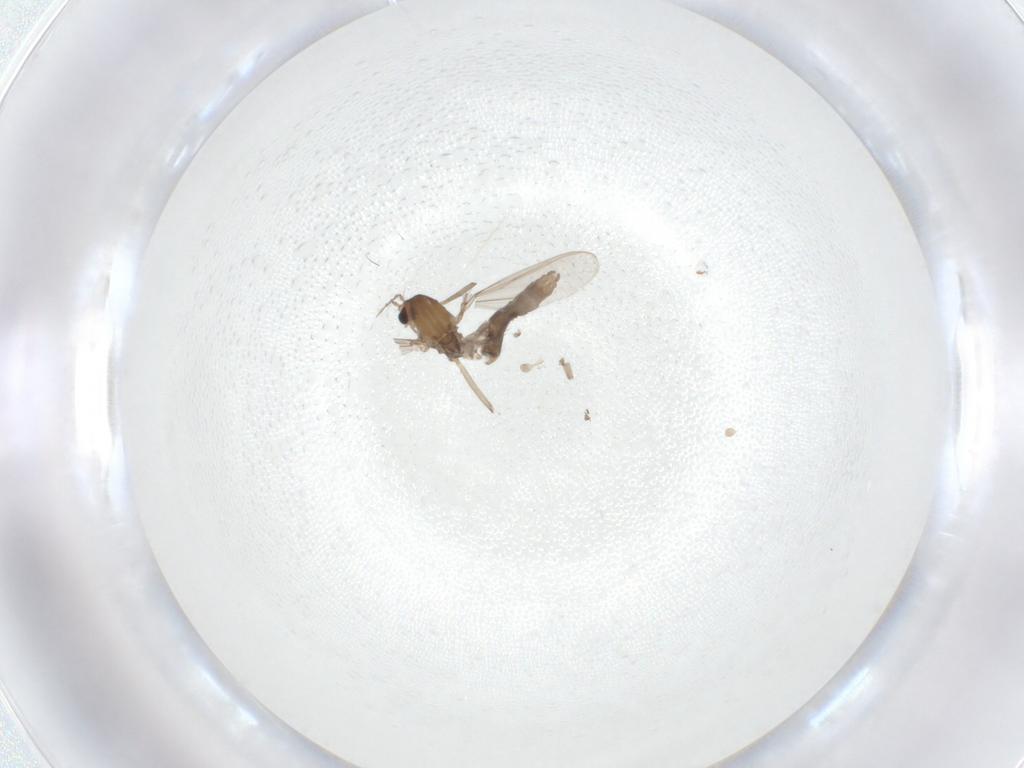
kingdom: Animalia
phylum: Arthropoda
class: Insecta
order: Diptera
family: Chironomidae
